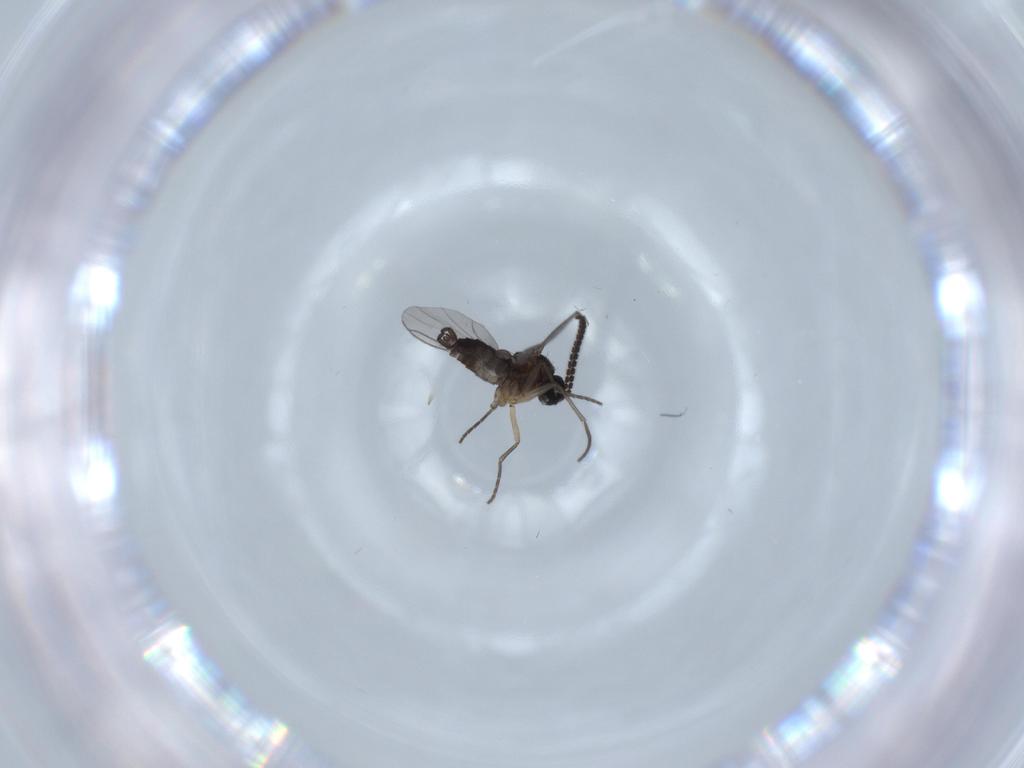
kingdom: Animalia
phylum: Arthropoda
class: Insecta
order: Diptera
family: Sciaridae
